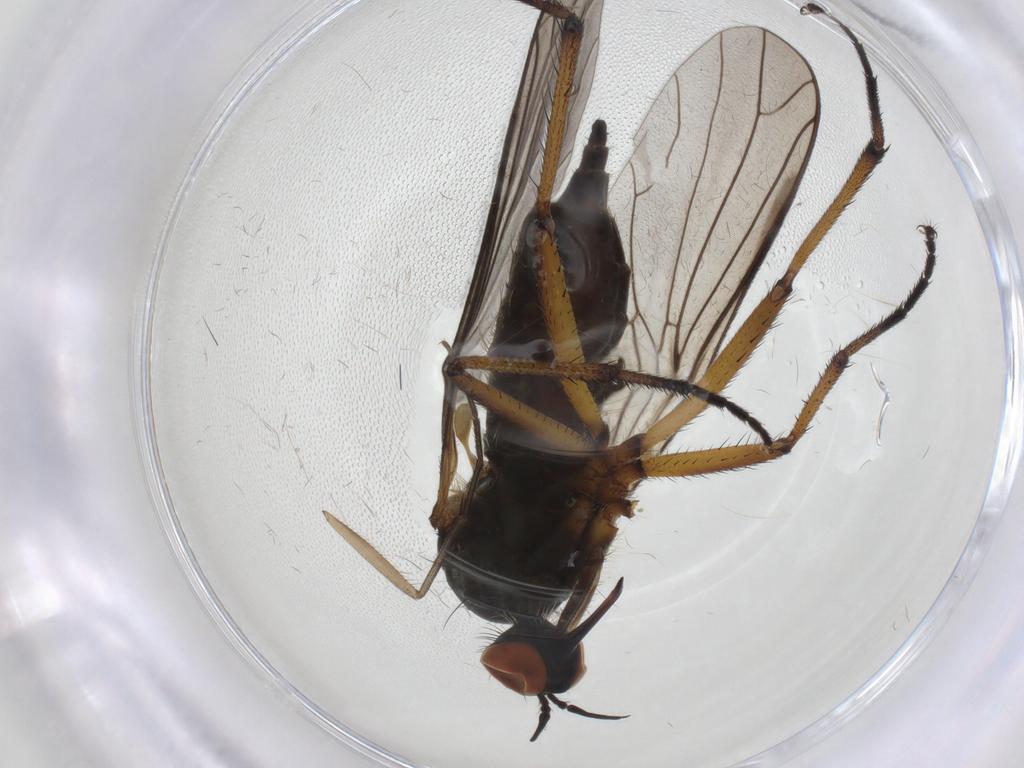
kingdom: Animalia
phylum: Arthropoda
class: Insecta
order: Diptera
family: Empididae
